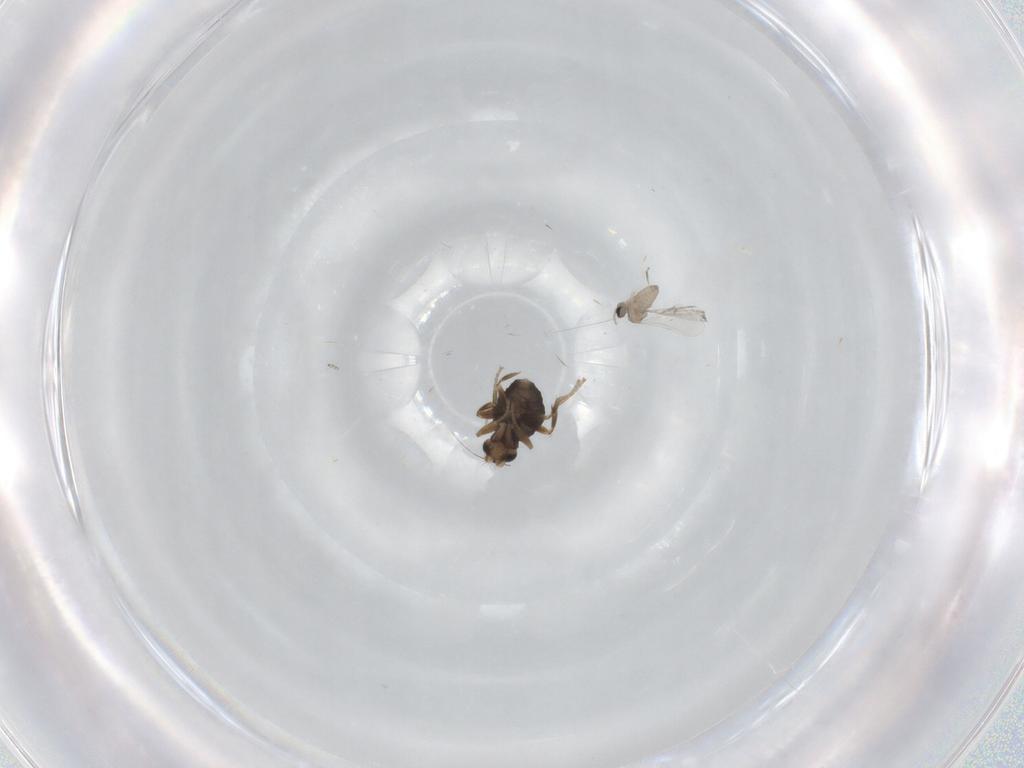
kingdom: Animalia
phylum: Arthropoda
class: Insecta
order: Diptera
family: Phoridae
